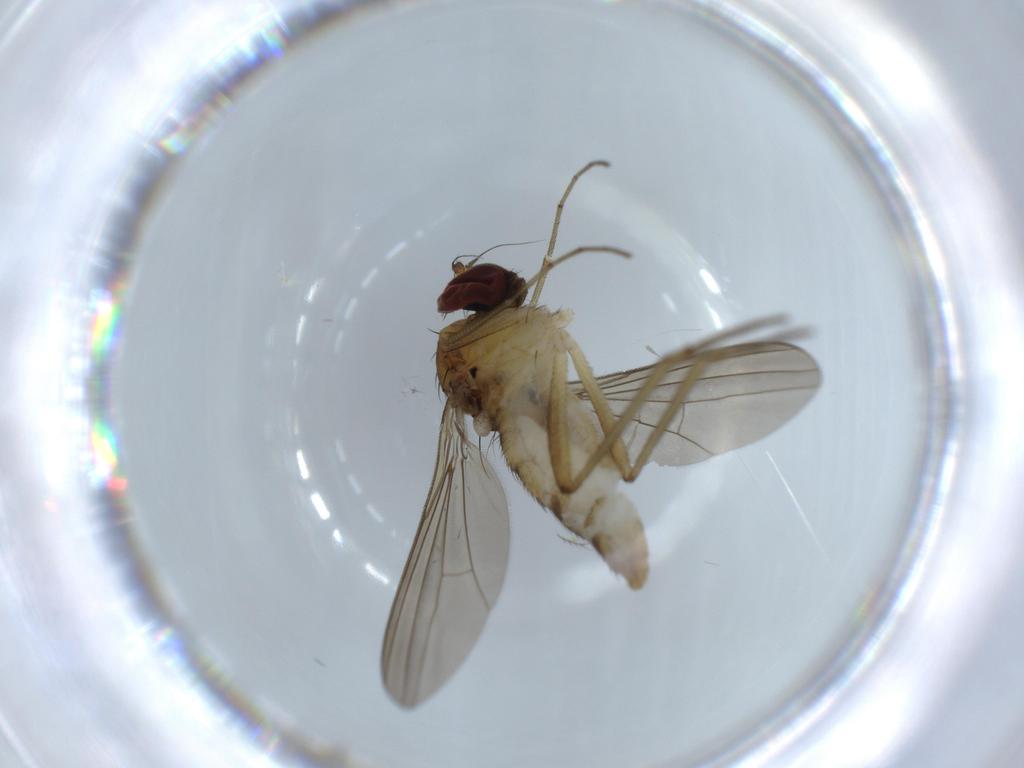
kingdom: Animalia
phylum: Arthropoda
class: Insecta
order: Diptera
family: Dolichopodidae
